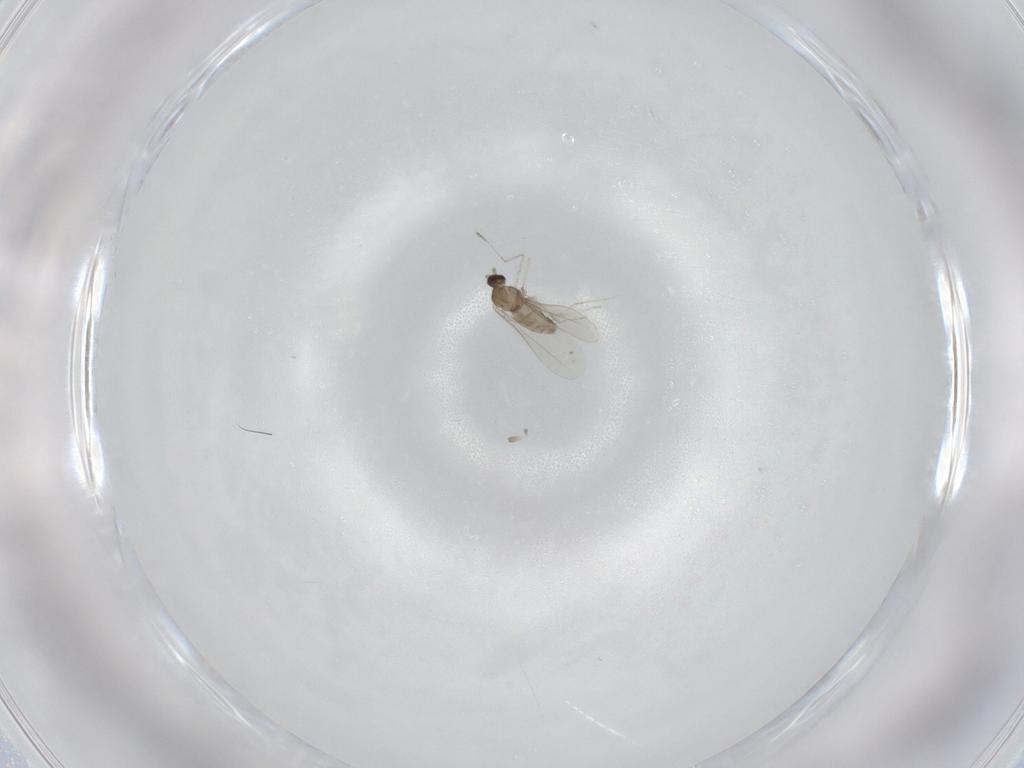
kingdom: Animalia
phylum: Arthropoda
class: Insecta
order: Diptera
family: Cecidomyiidae
